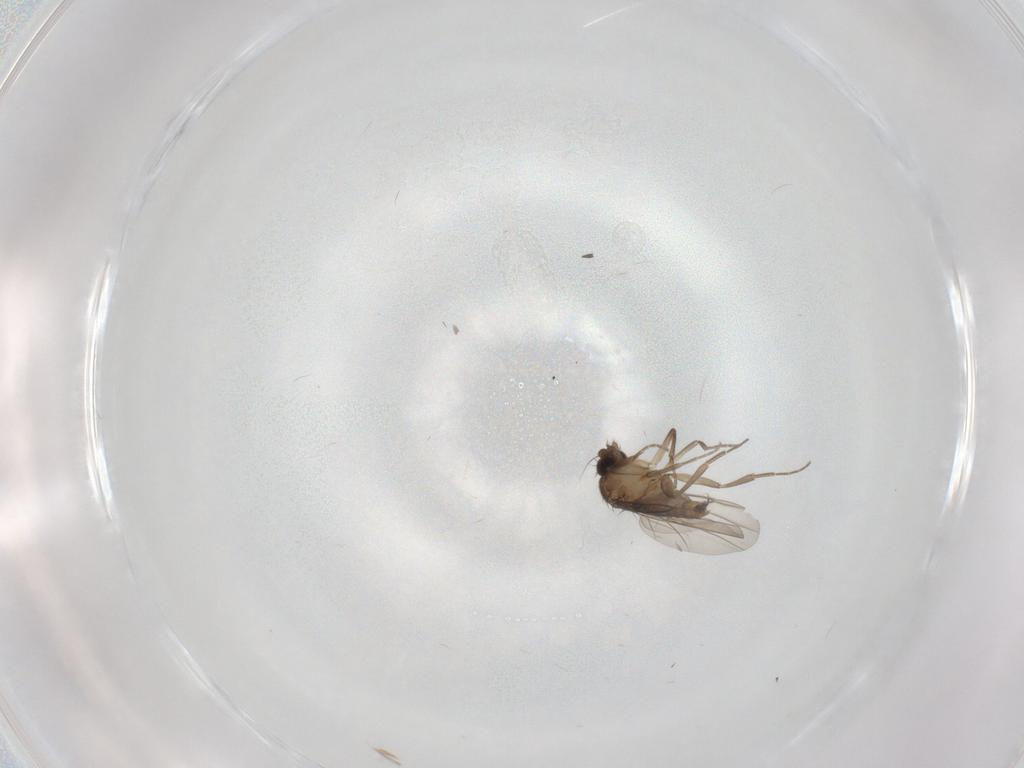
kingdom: Animalia
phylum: Arthropoda
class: Insecta
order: Diptera
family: Phoridae
